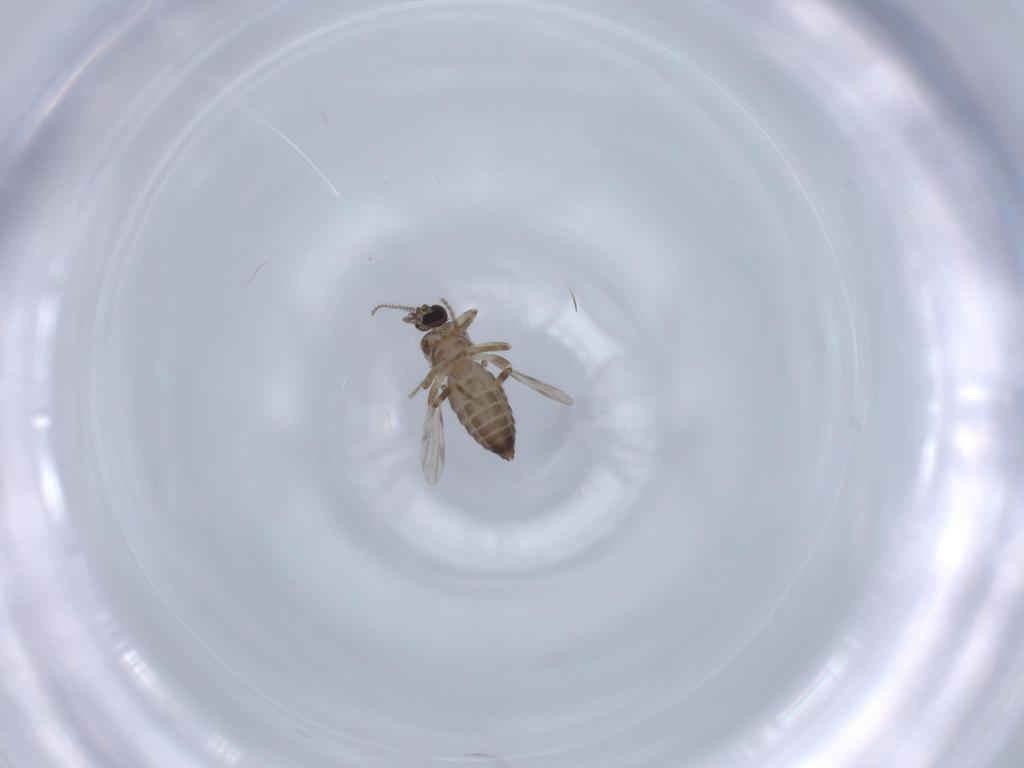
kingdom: Animalia
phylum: Arthropoda
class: Insecta
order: Diptera
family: Ceratopogonidae
